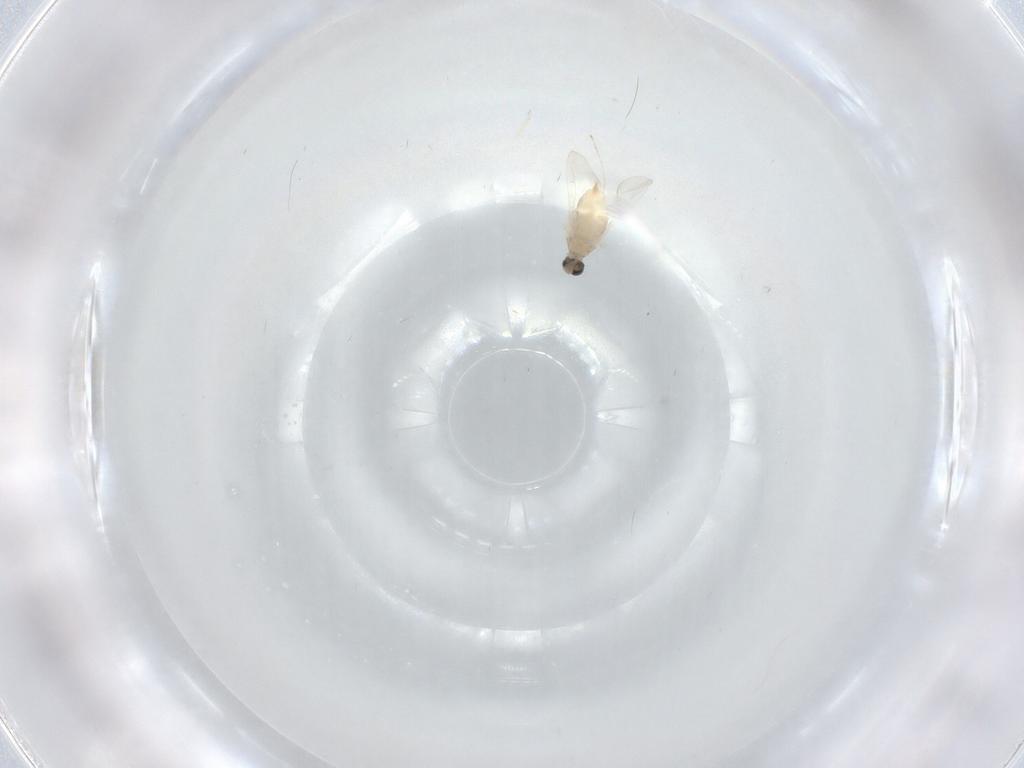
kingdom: Animalia
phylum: Arthropoda
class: Insecta
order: Diptera
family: Cecidomyiidae
